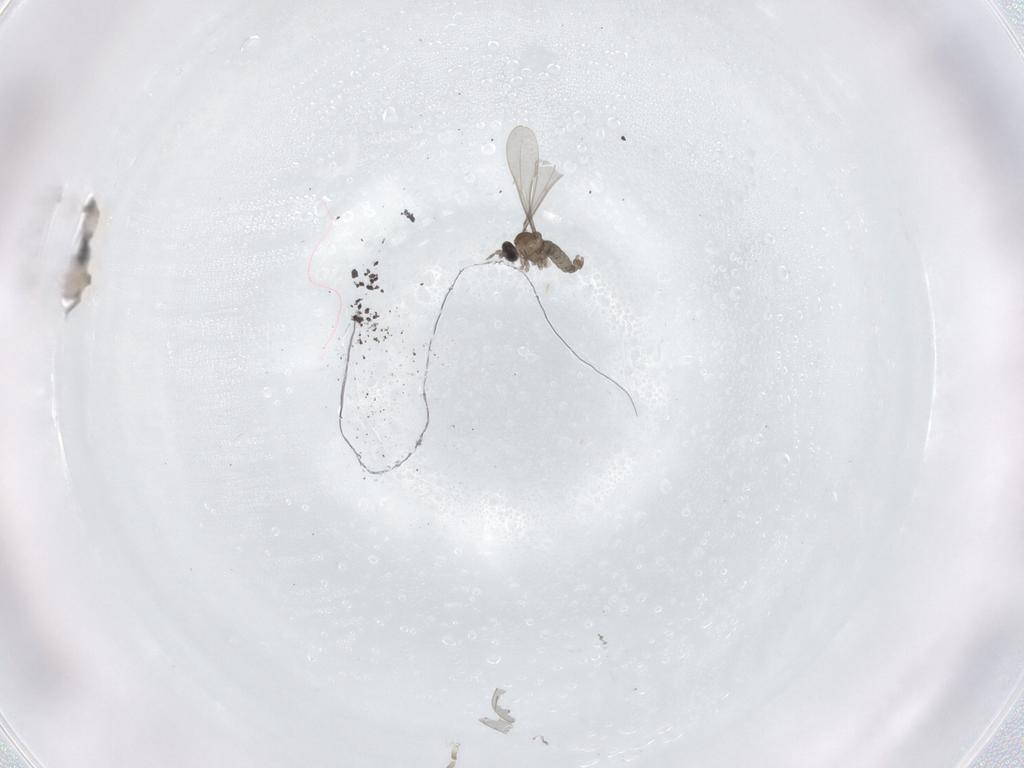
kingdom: Animalia
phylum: Arthropoda
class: Insecta
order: Diptera
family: Cecidomyiidae
